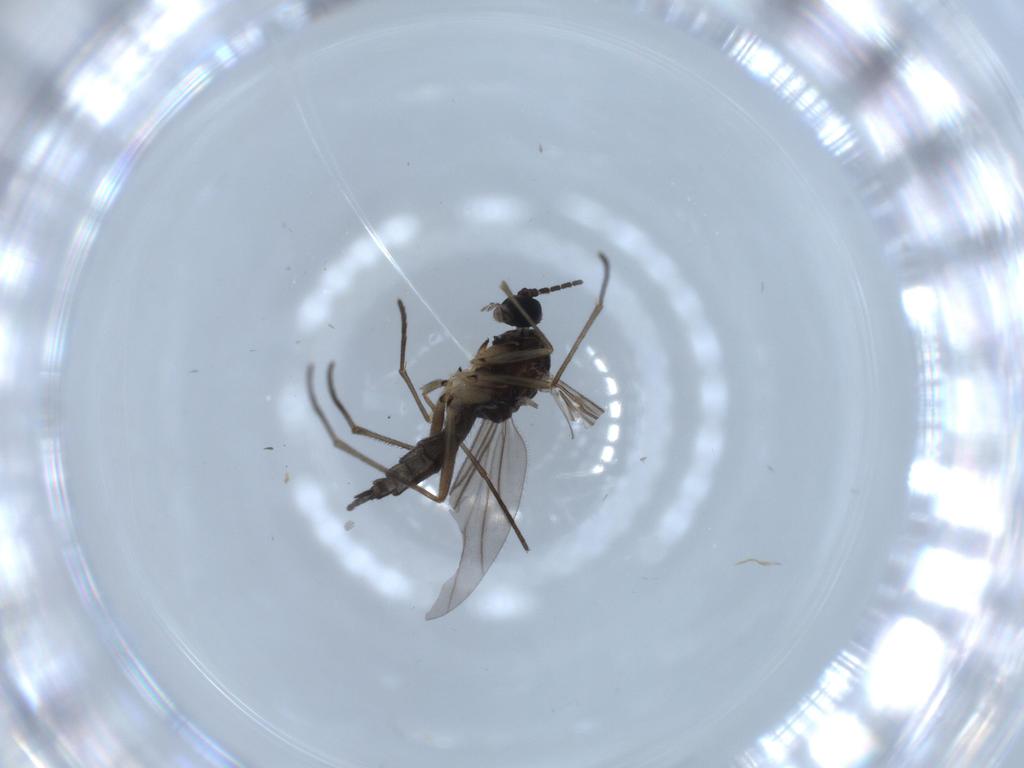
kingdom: Animalia
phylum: Arthropoda
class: Insecta
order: Diptera
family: Sciaridae
